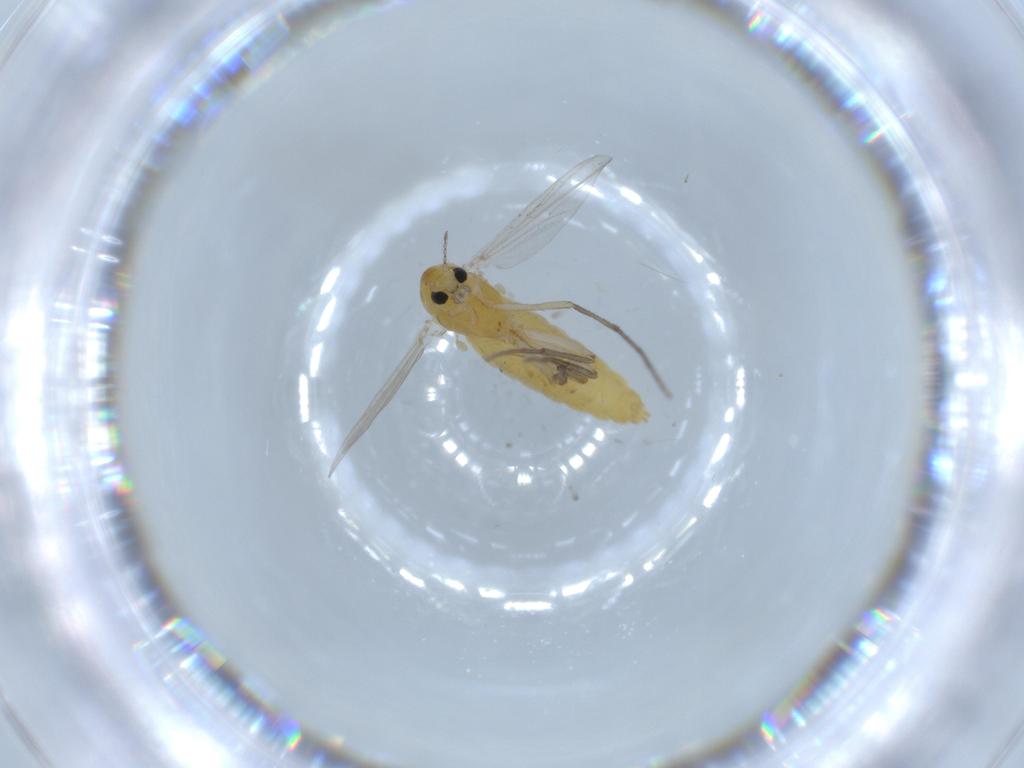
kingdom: Animalia
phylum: Arthropoda
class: Insecta
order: Diptera
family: Chironomidae
